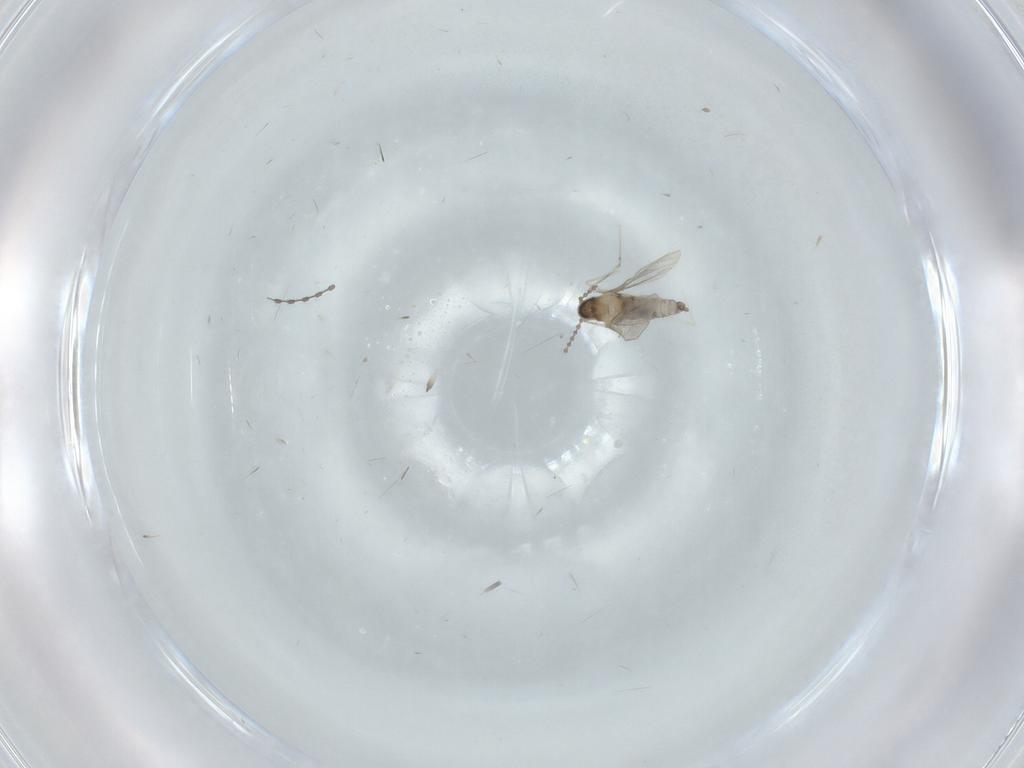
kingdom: Animalia
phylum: Arthropoda
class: Insecta
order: Diptera
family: Cecidomyiidae
